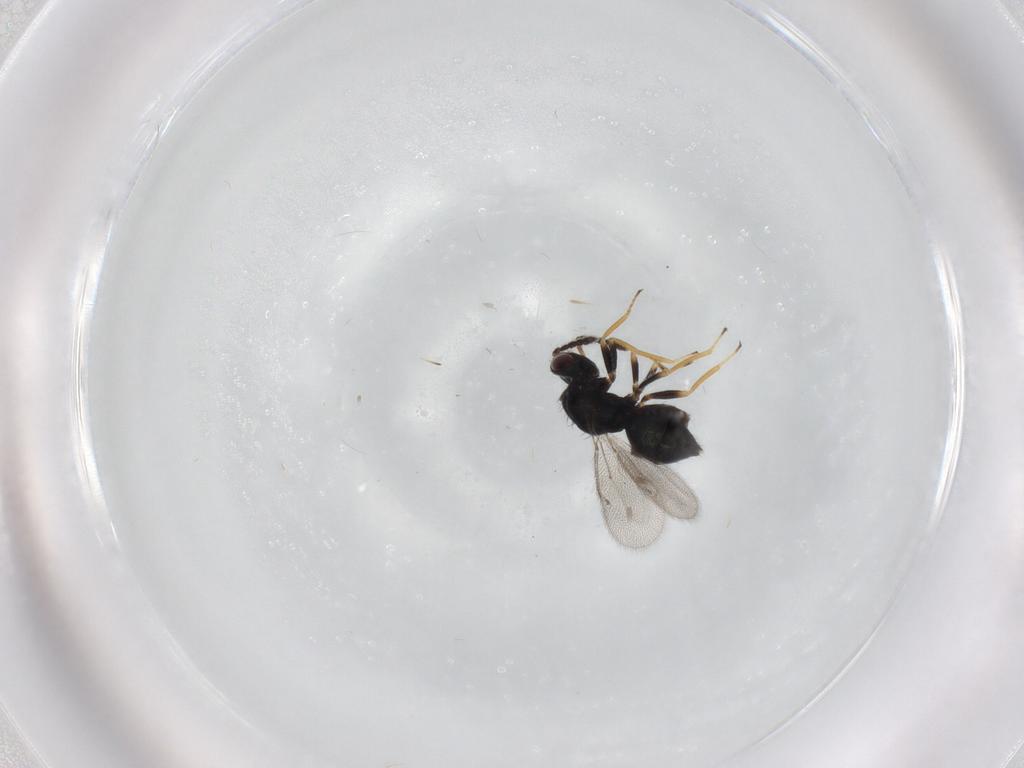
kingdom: Animalia
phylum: Arthropoda
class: Insecta
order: Hymenoptera
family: Eulophidae
